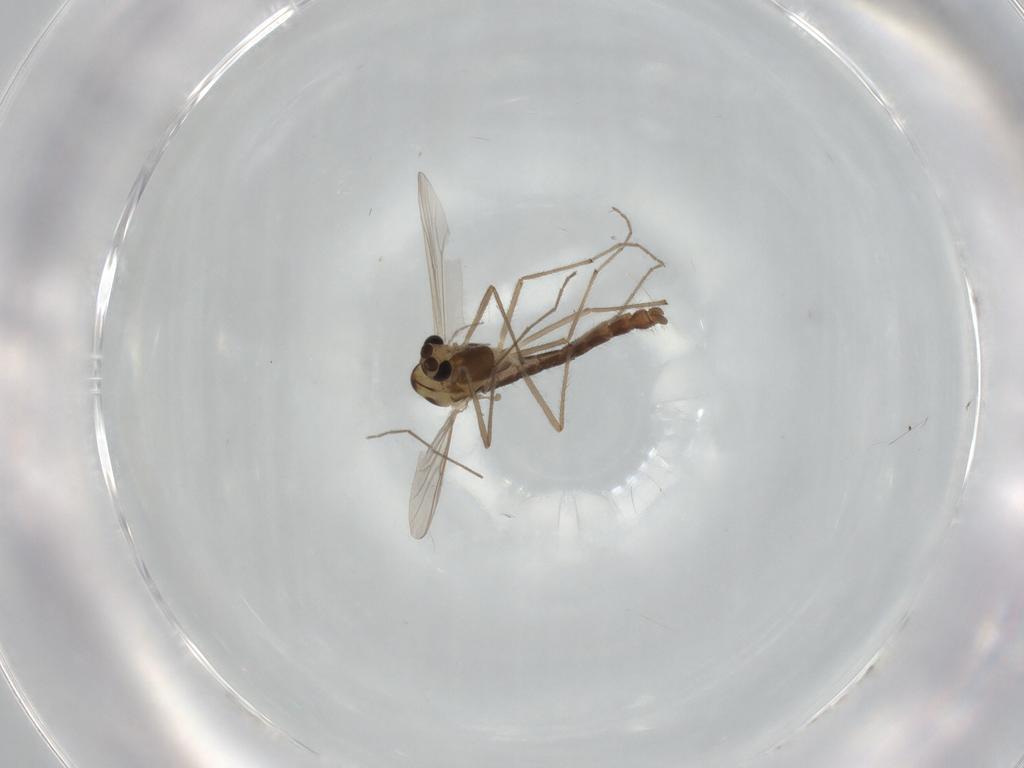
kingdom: Animalia
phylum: Arthropoda
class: Insecta
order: Diptera
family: Chironomidae
